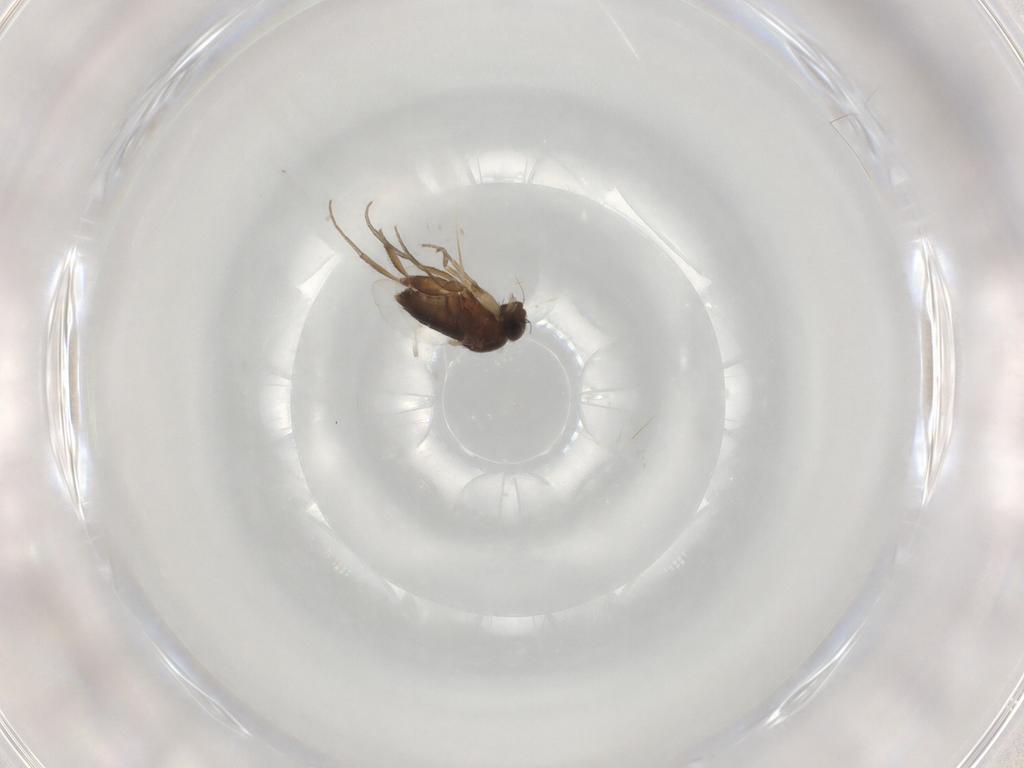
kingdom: Animalia
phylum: Arthropoda
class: Insecta
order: Diptera
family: Phoridae
